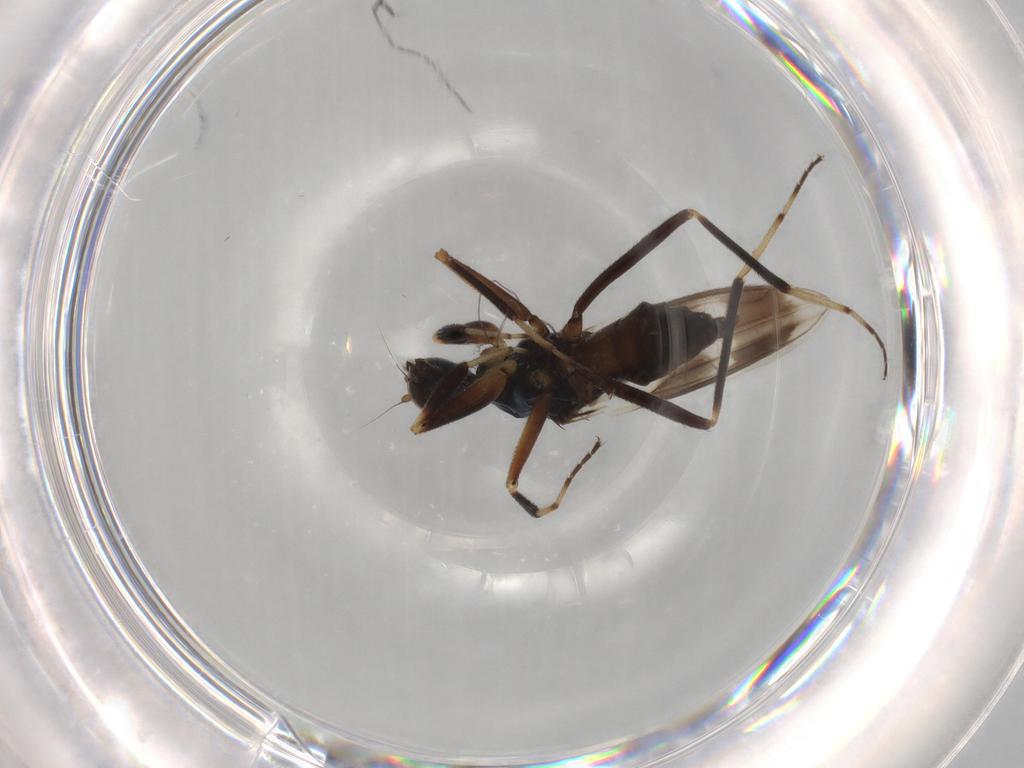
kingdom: Animalia
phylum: Arthropoda
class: Insecta
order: Diptera
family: Hybotidae
